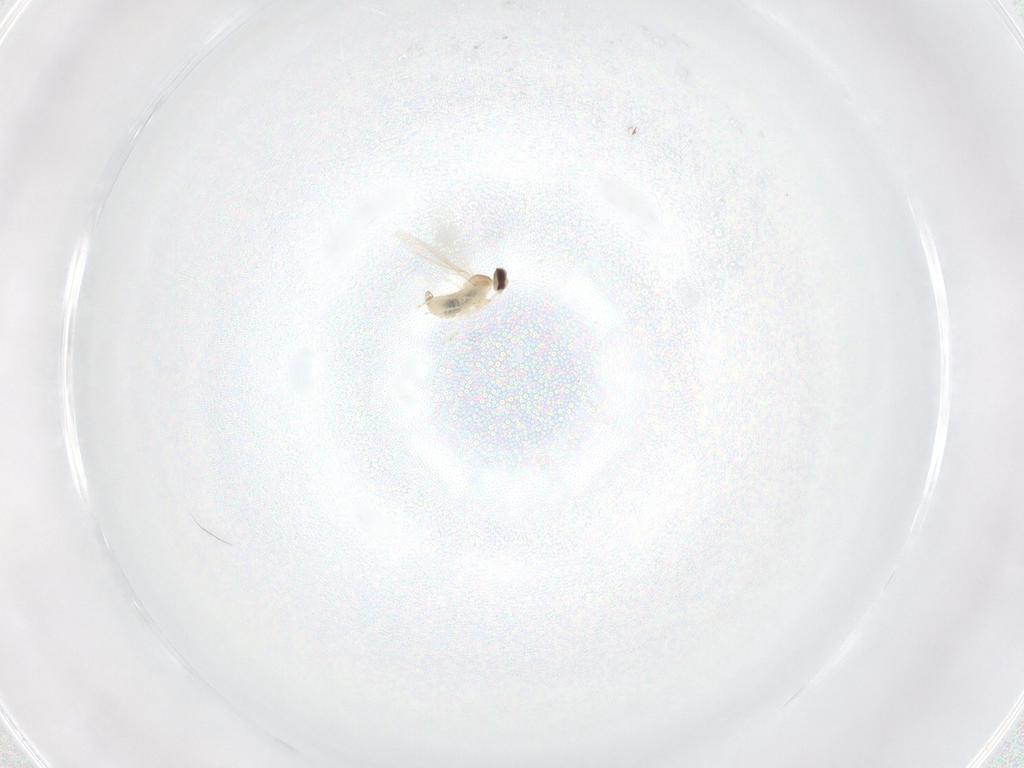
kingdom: Animalia
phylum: Arthropoda
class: Insecta
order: Diptera
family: Cecidomyiidae
